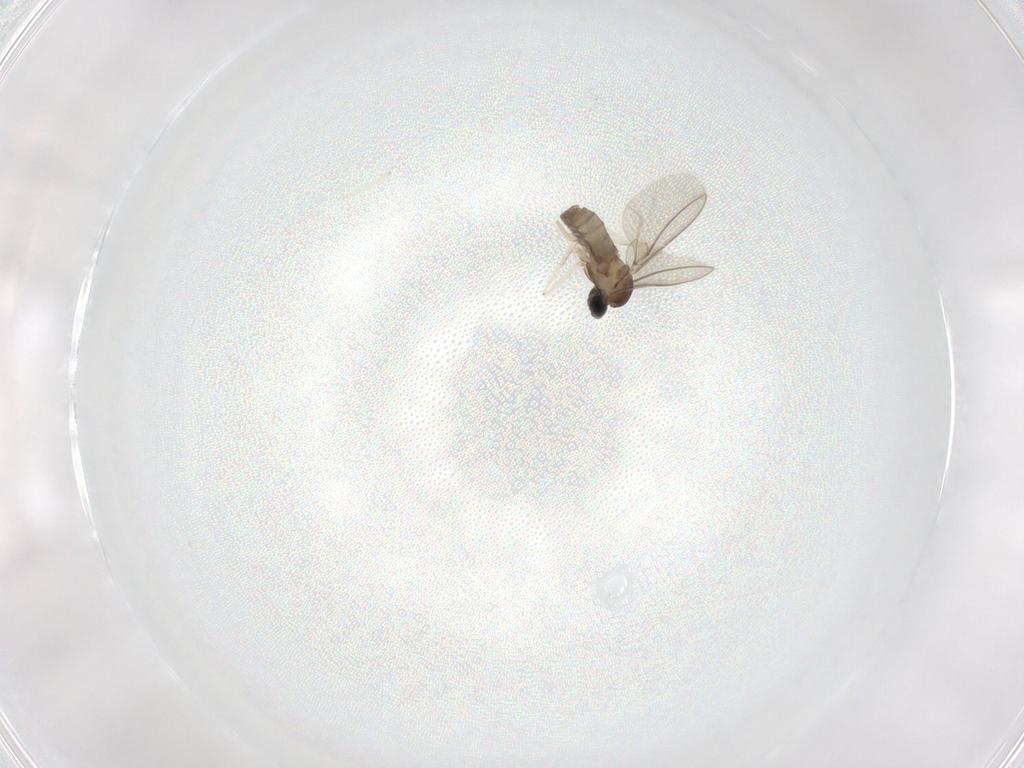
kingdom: Animalia
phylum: Arthropoda
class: Insecta
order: Diptera
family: Cecidomyiidae
